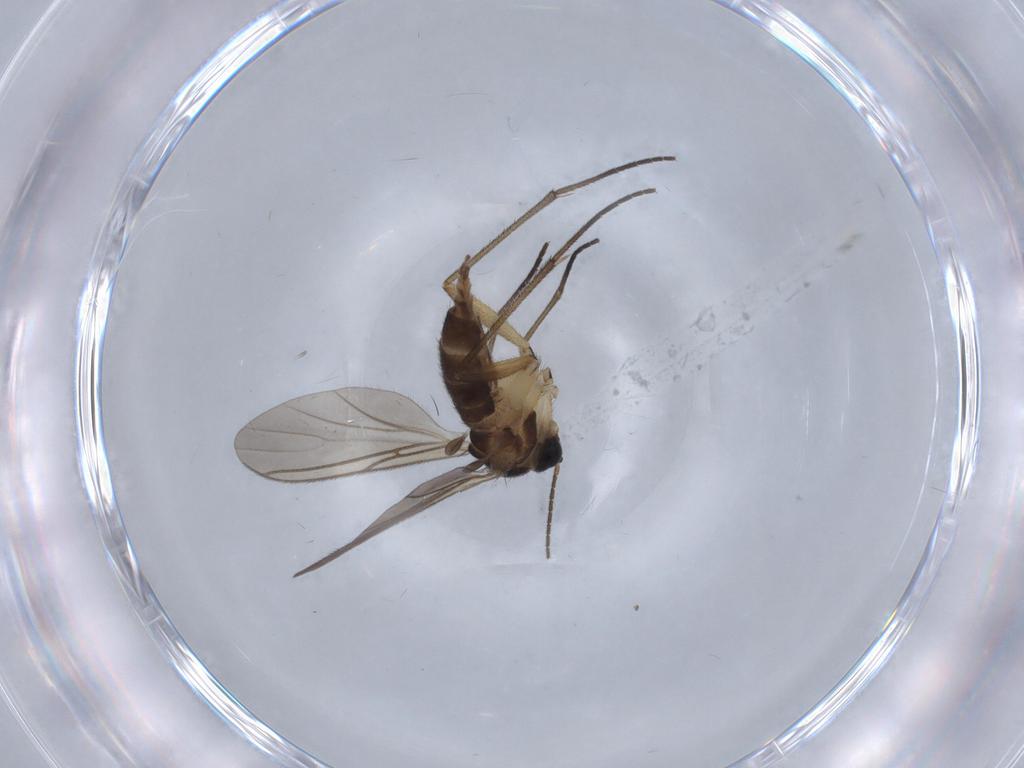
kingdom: Animalia
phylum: Arthropoda
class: Insecta
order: Diptera
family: Sciaridae
